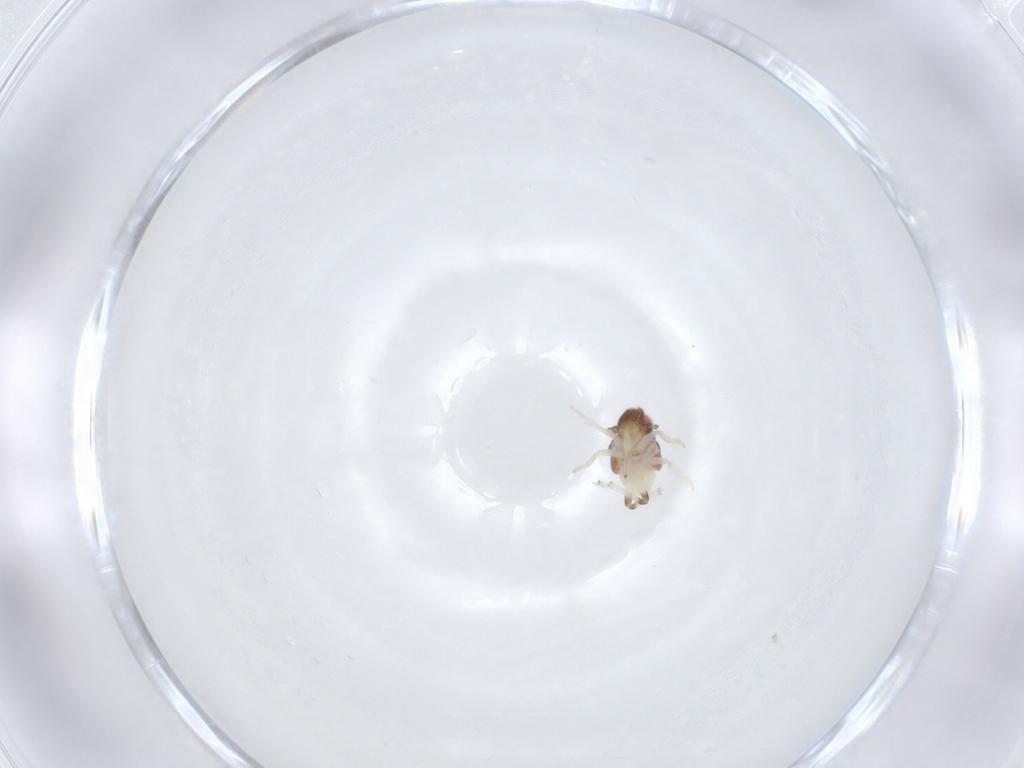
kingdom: Animalia
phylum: Arthropoda
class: Insecta
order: Hemiptera
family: Nogodinidae
